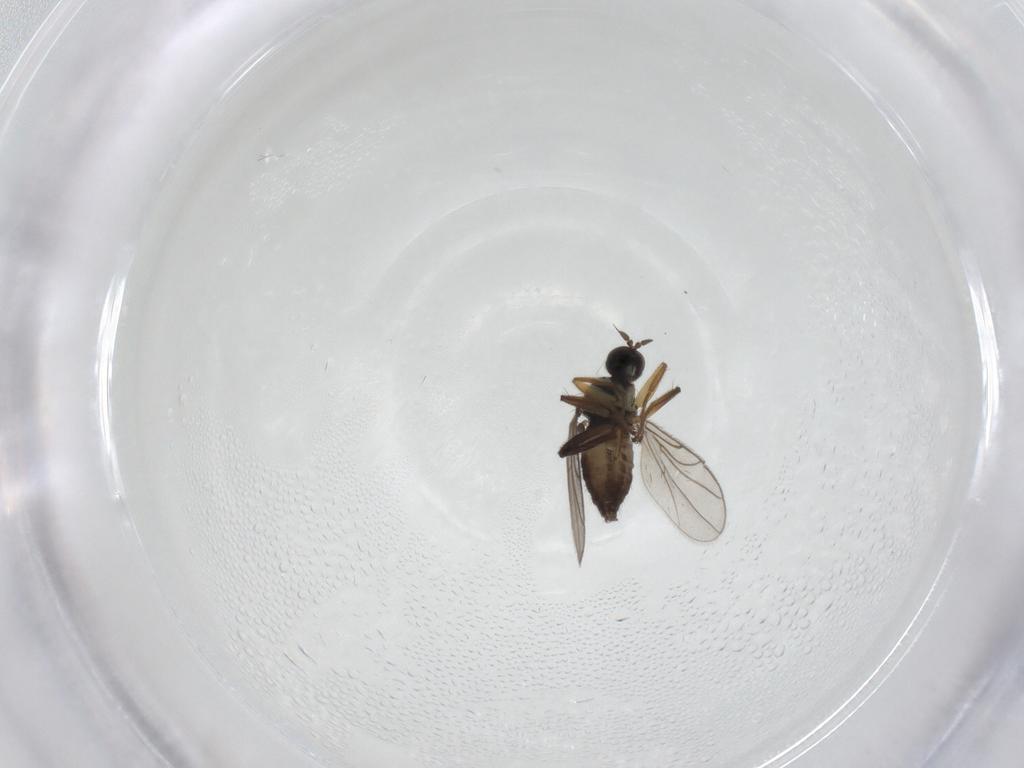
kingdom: Animalia
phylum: Arthropoda
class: Insecta
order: Diptera
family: Hybotidae
